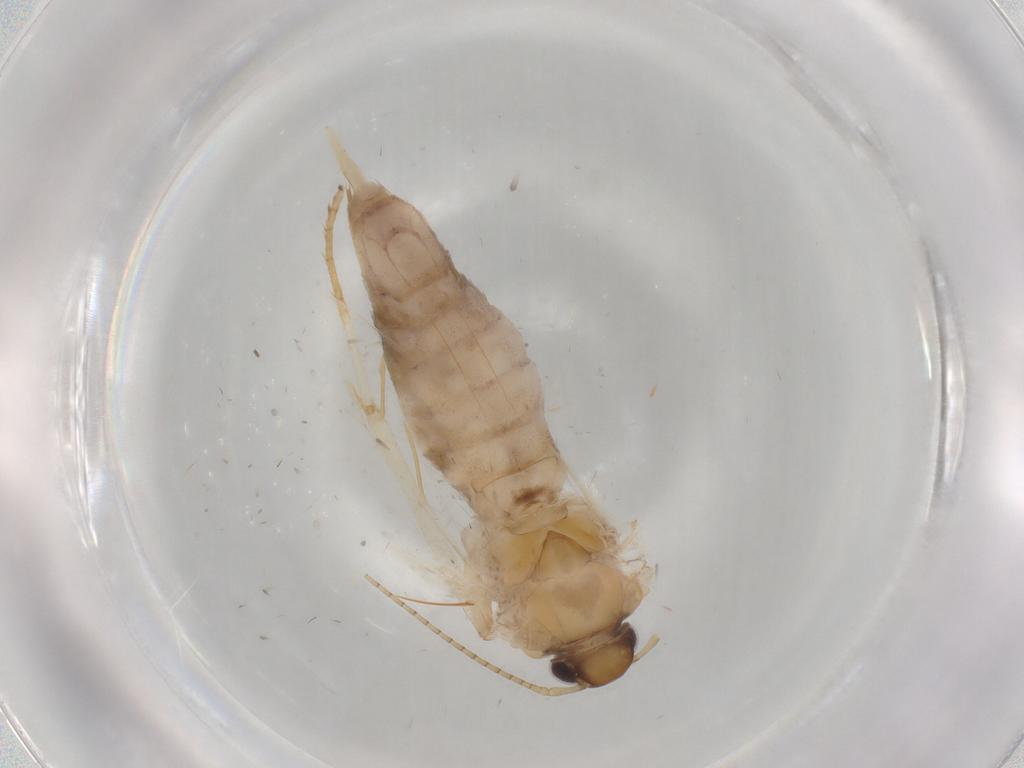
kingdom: Animalia
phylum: Arthropoda
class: Insecta
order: Lepidoptera
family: Gelechiidae
